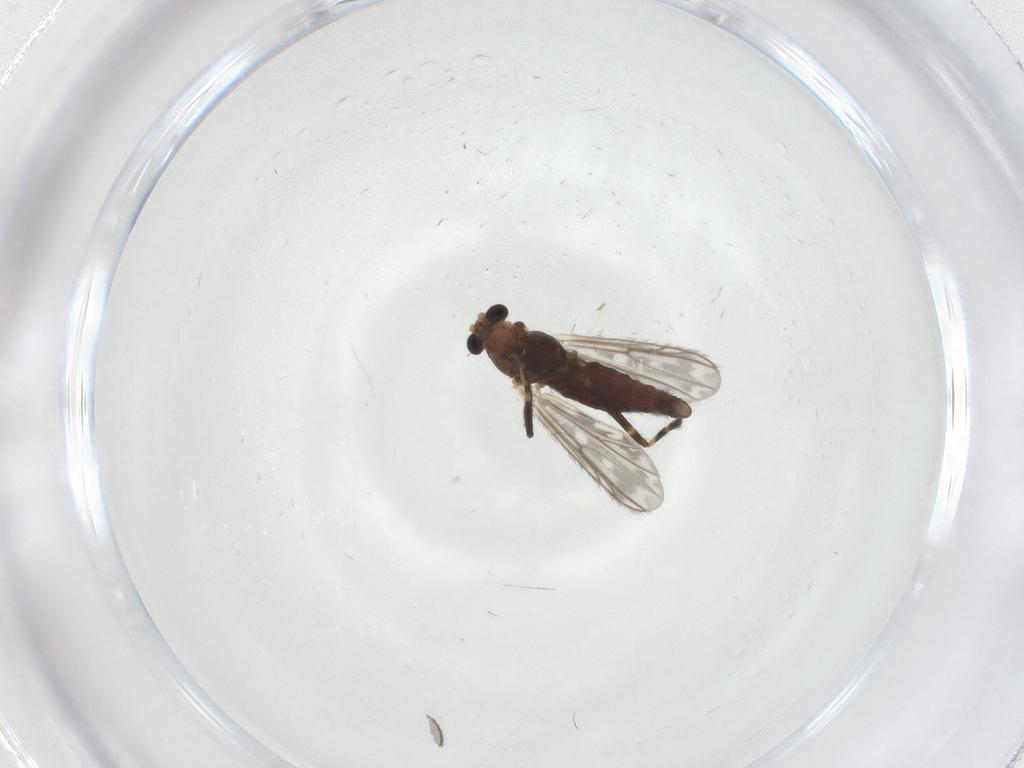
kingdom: Animalia
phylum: Arthropoda
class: Insecta
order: Diptera
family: Chironomidae
